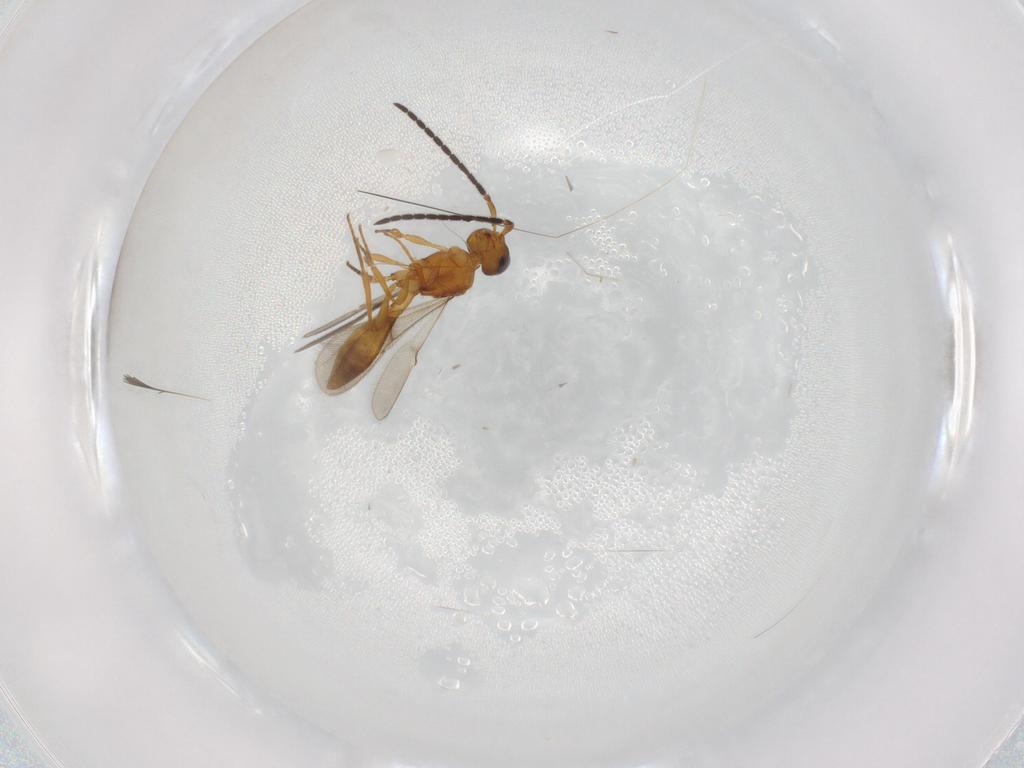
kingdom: Animalia
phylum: Arthropoda
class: Insecta
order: Hymenoptera
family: Scelionidae
